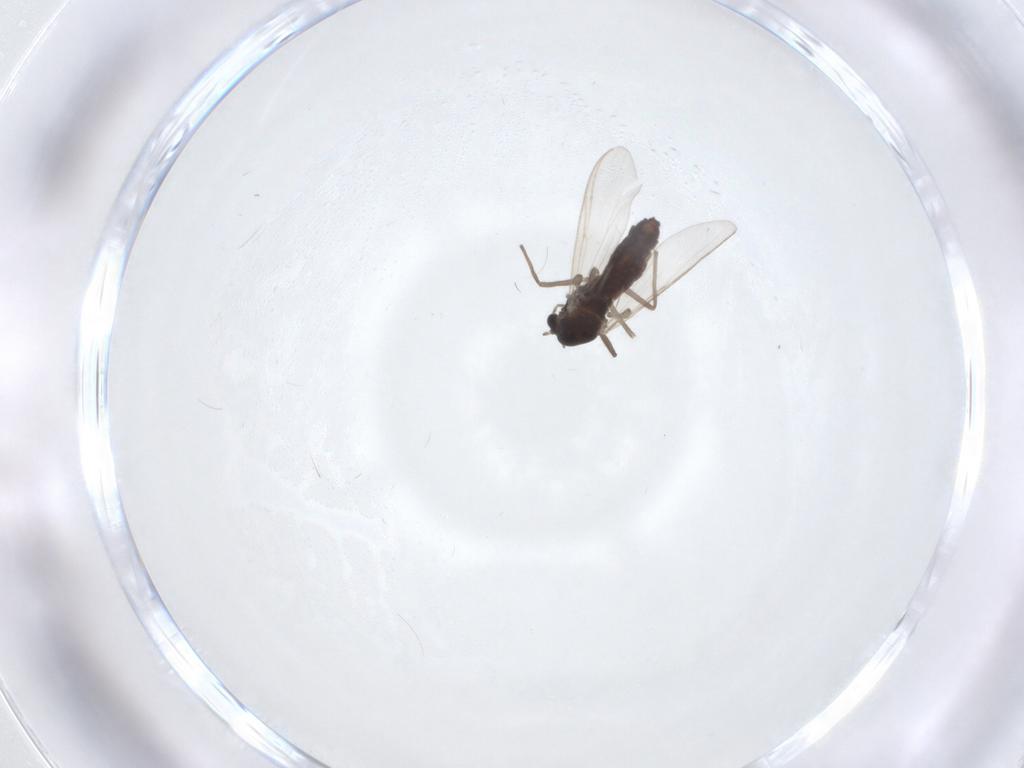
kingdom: Animalia
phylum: Arthropoda
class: Insecta
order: Diptera
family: Chironomidae
